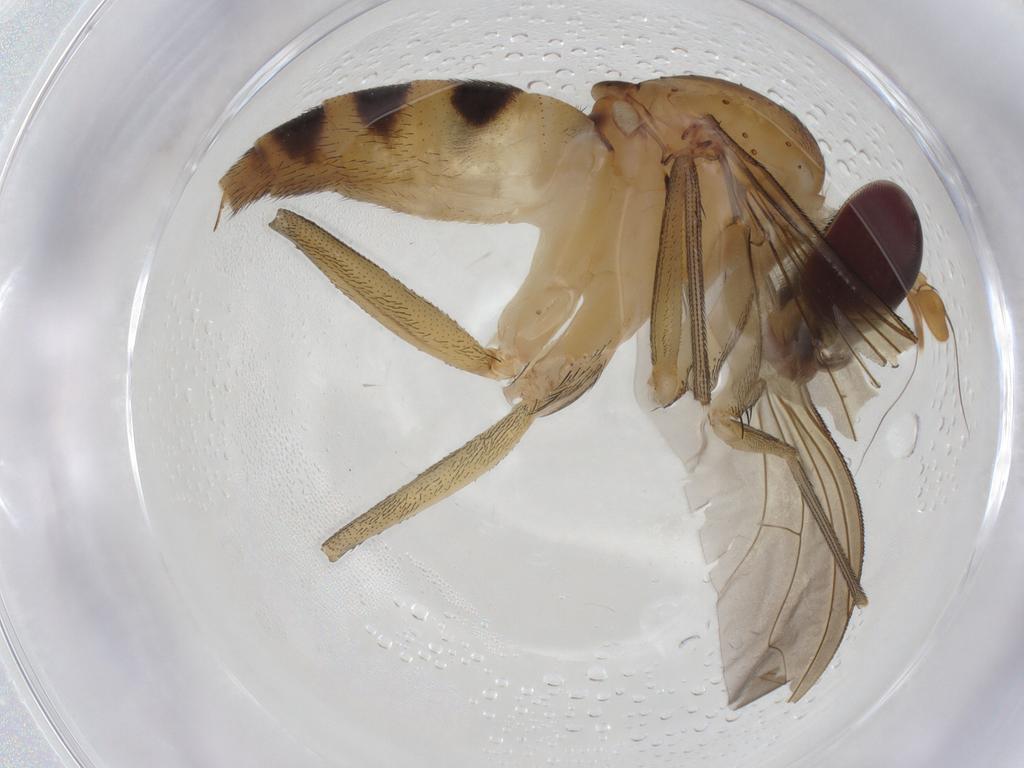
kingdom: Animalia
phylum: Arthropoda
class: Insecta
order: Diptera
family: Dolichopodidae
